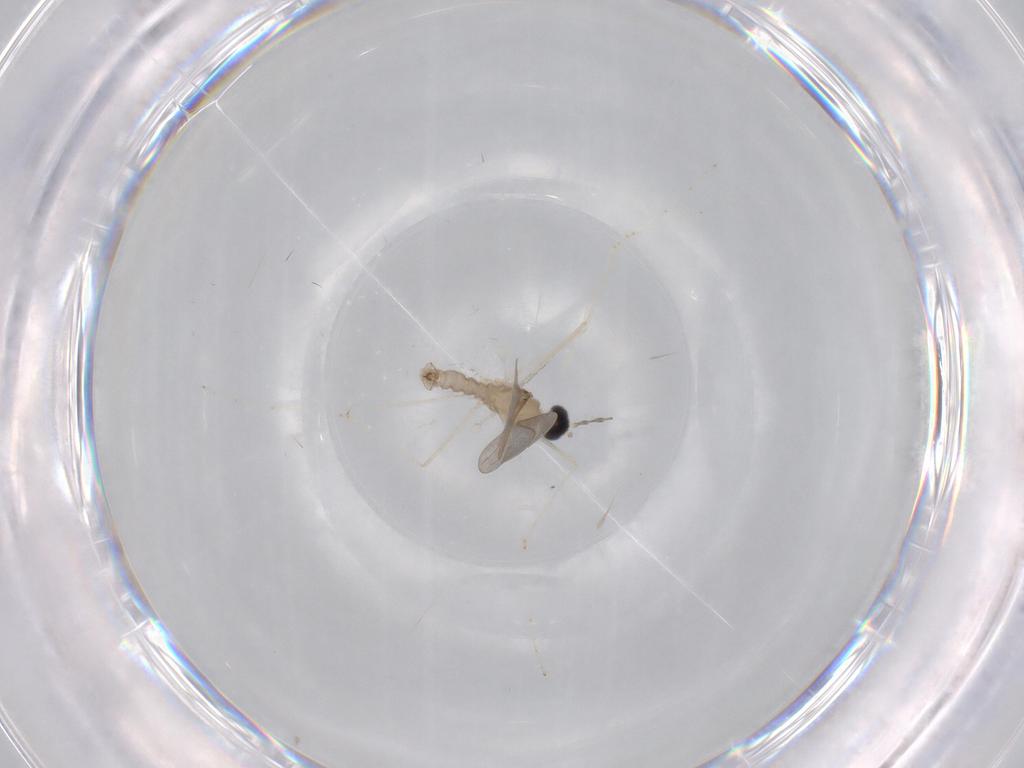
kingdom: Animalia
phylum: Arthropoda
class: Insecta
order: Diptera
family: Cecidomyiidae
